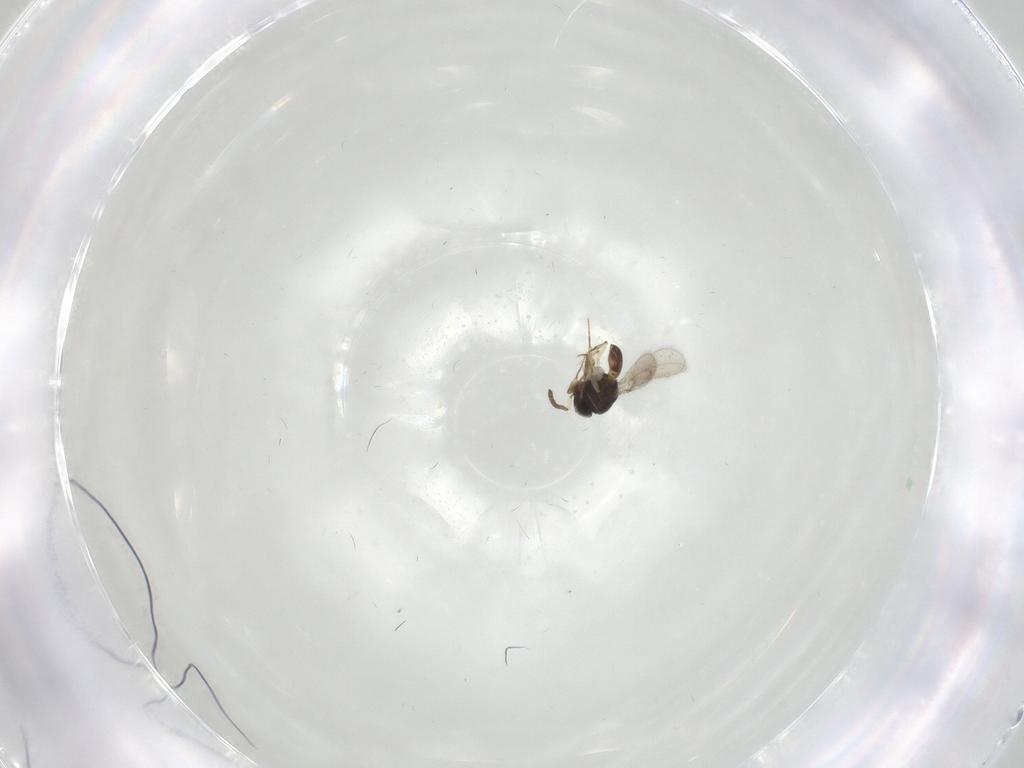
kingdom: Animalia
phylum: Arthropoda
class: Insecta
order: Hymenoptera
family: Scelionidae
